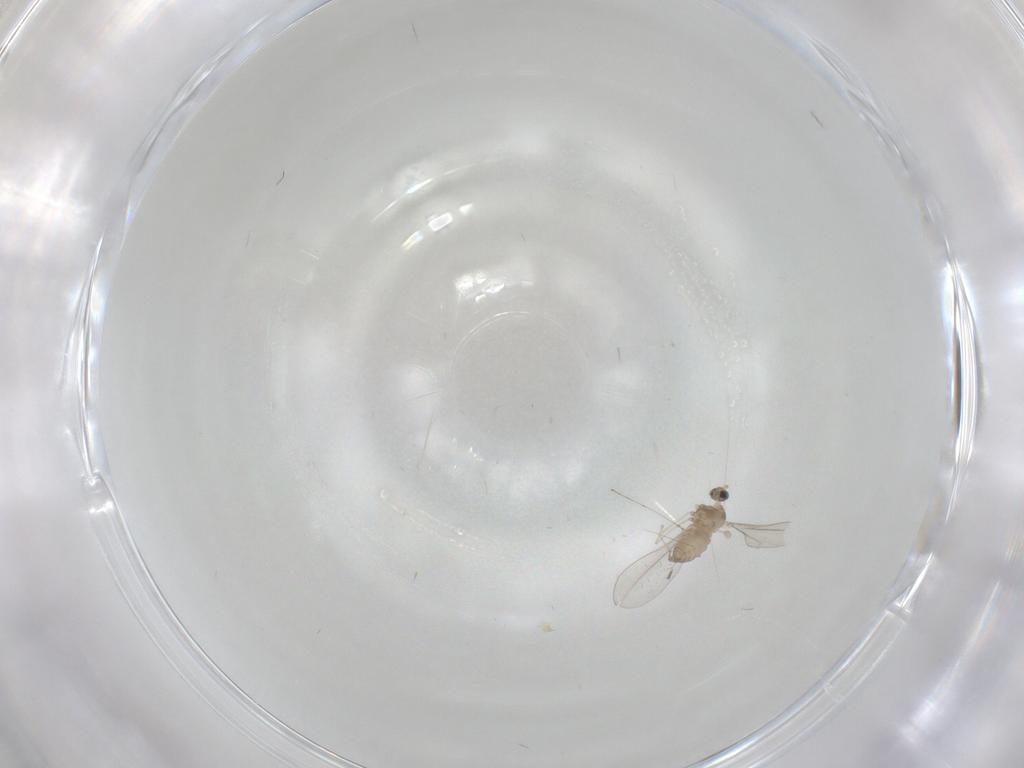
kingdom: Animalia
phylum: Arthropoda
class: Insecta
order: Diptera
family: Cecidomyiidae
